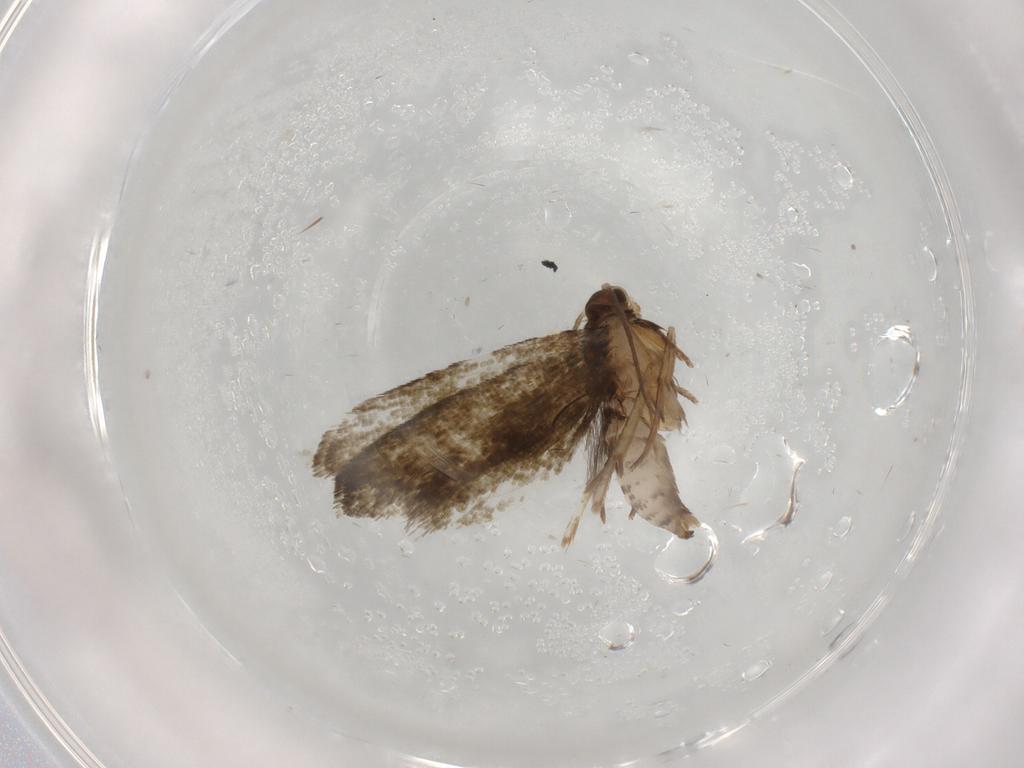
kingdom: Animalia
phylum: Arthropoda
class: Insecta
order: Lepidoptera
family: Tineidae
